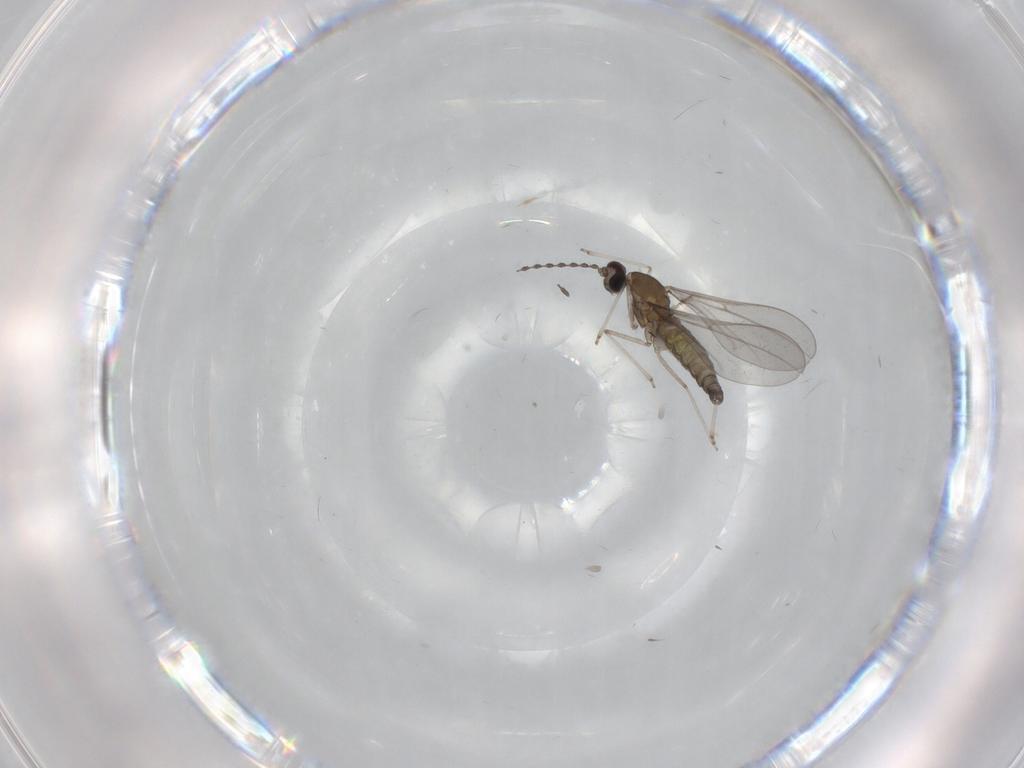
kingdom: Animalia
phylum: Arthropoda
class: Insecta
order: Diptera
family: Cecidomyiidae
